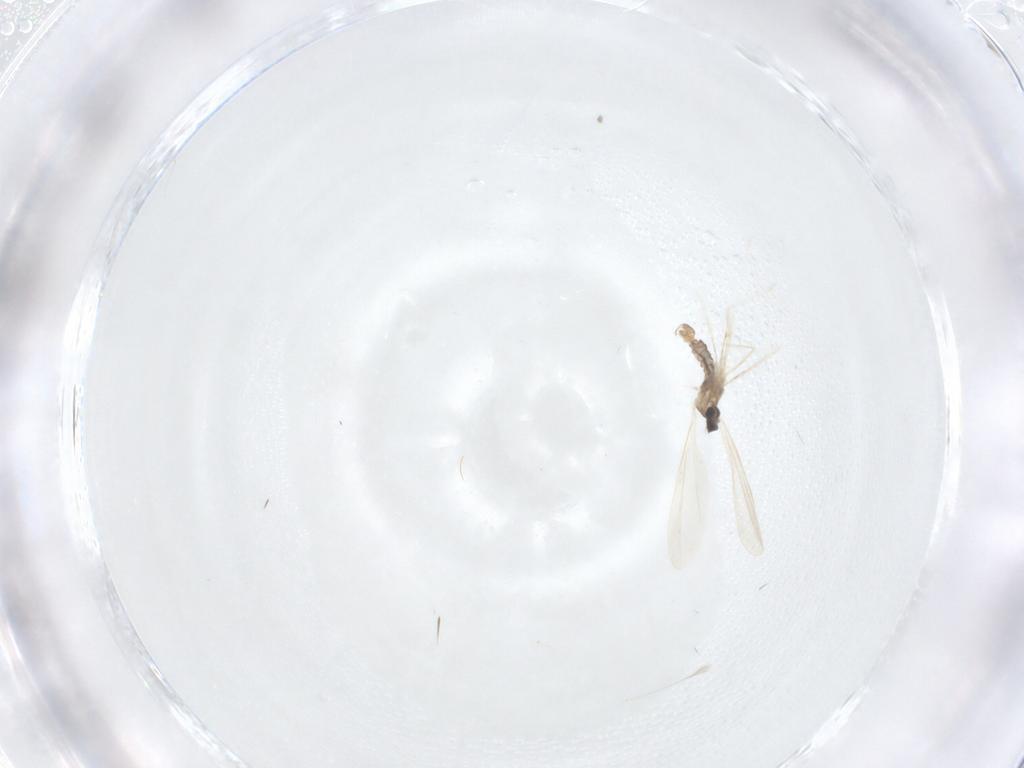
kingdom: Animalia
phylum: Arthropoda
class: Insecta
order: Diptera
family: Cecidomyiidae
